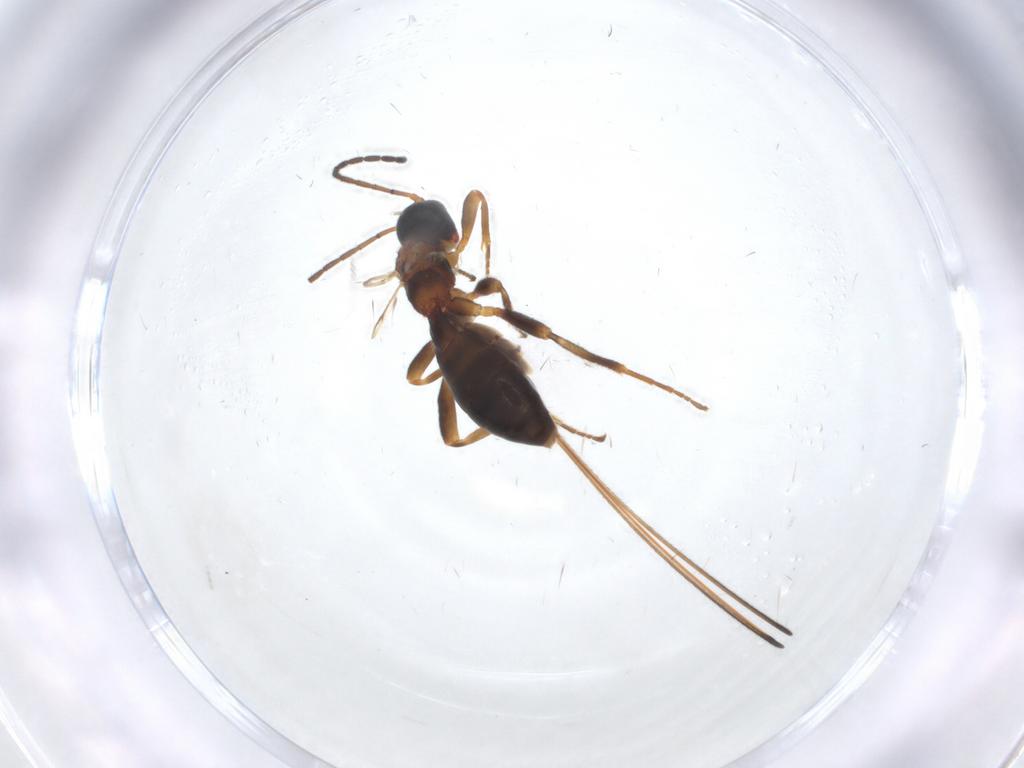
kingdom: Animalia
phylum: Arthropoda
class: Insecta
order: Hymenoptera
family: Braconidae
